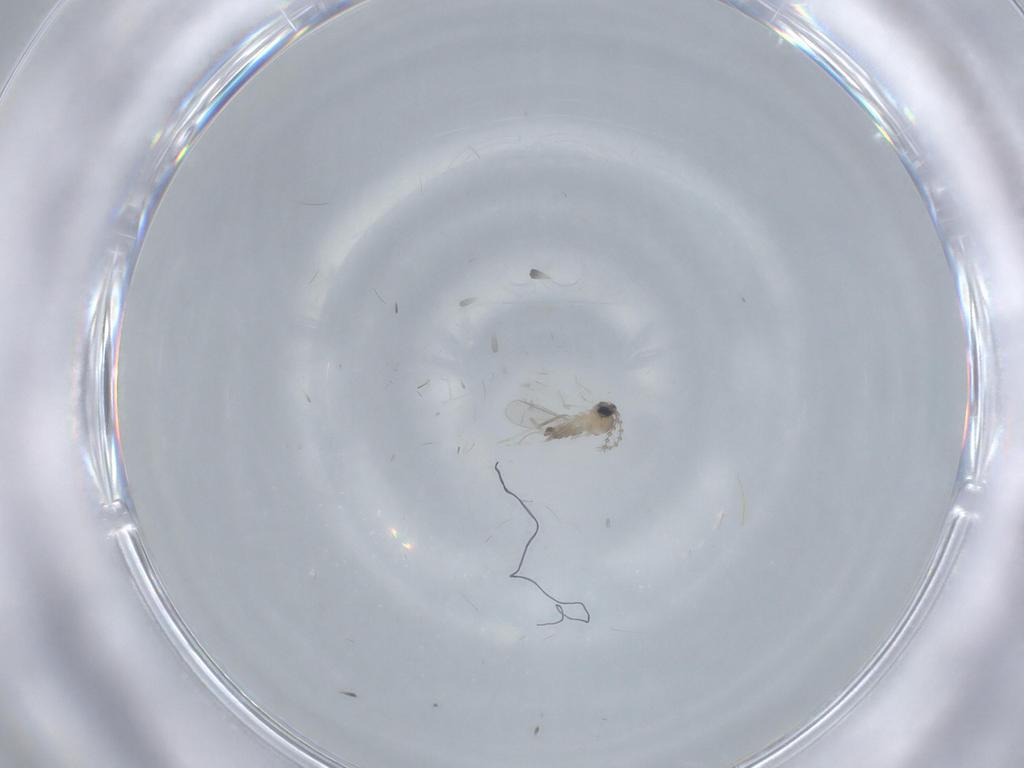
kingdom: Animalia
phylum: Arthropoda
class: Insecta
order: Diptera
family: Cecidomyiidae
